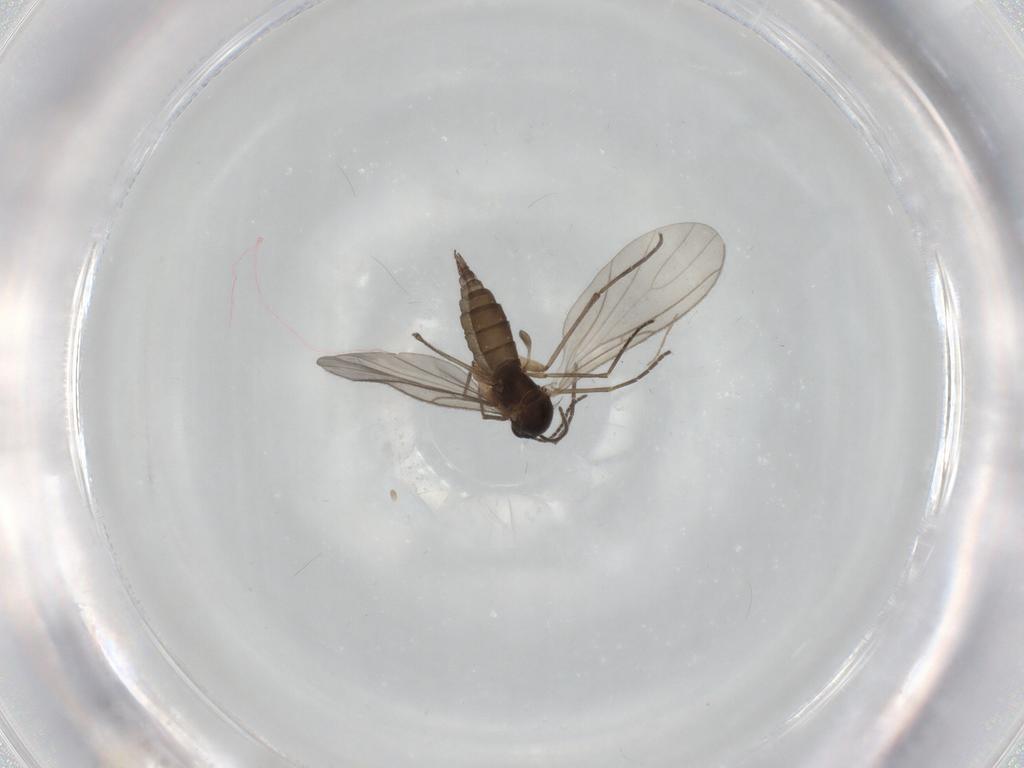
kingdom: Animalia
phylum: Arthropoda
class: Insecta
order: Diptera
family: Sciaridae
